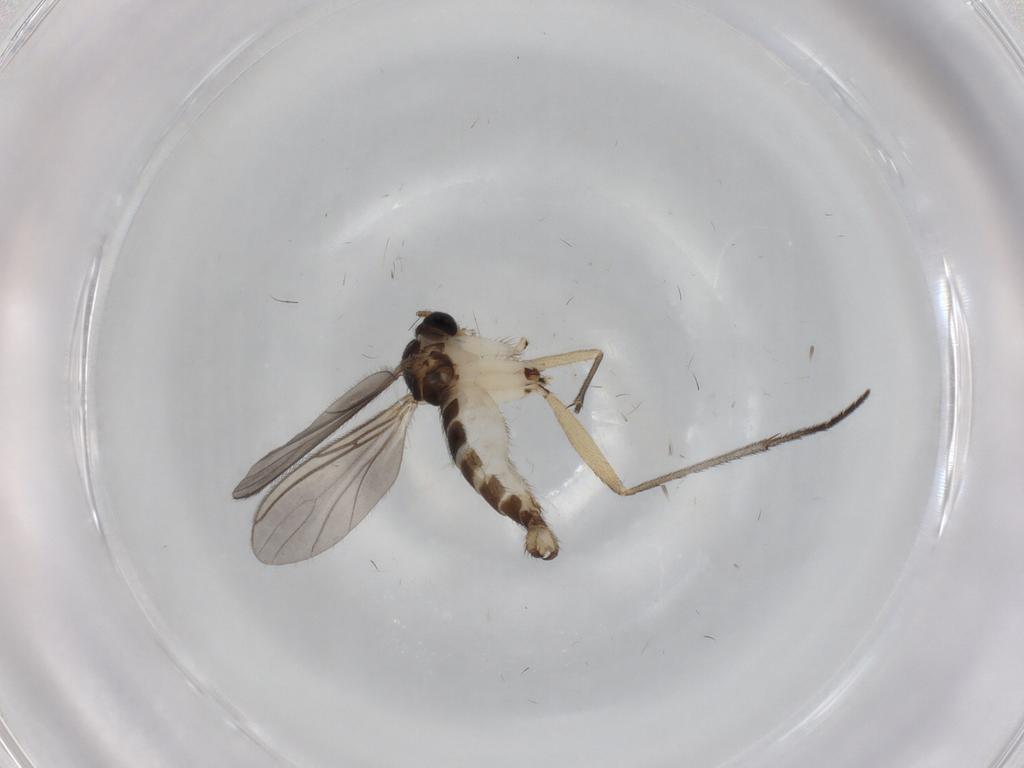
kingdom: Animalia
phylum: Arthropoda
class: Insecta
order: Diptera
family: Sciaridae
